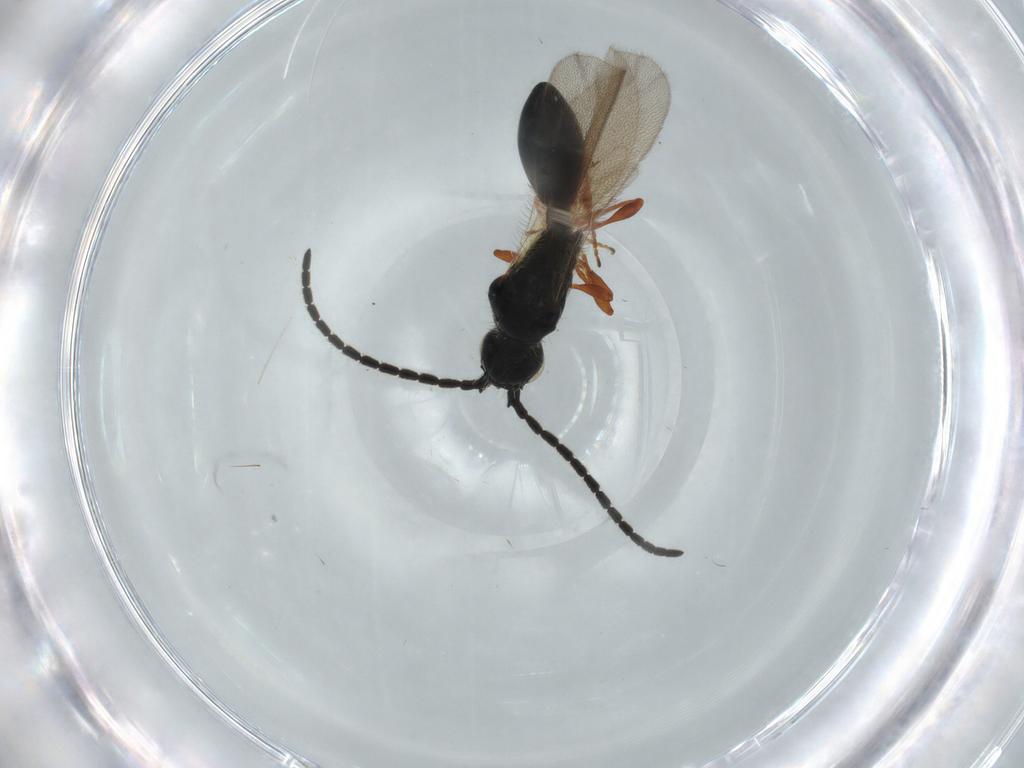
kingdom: Animalia
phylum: Arthropoda
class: Insecta
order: Hymenoptera
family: Diapriidae
